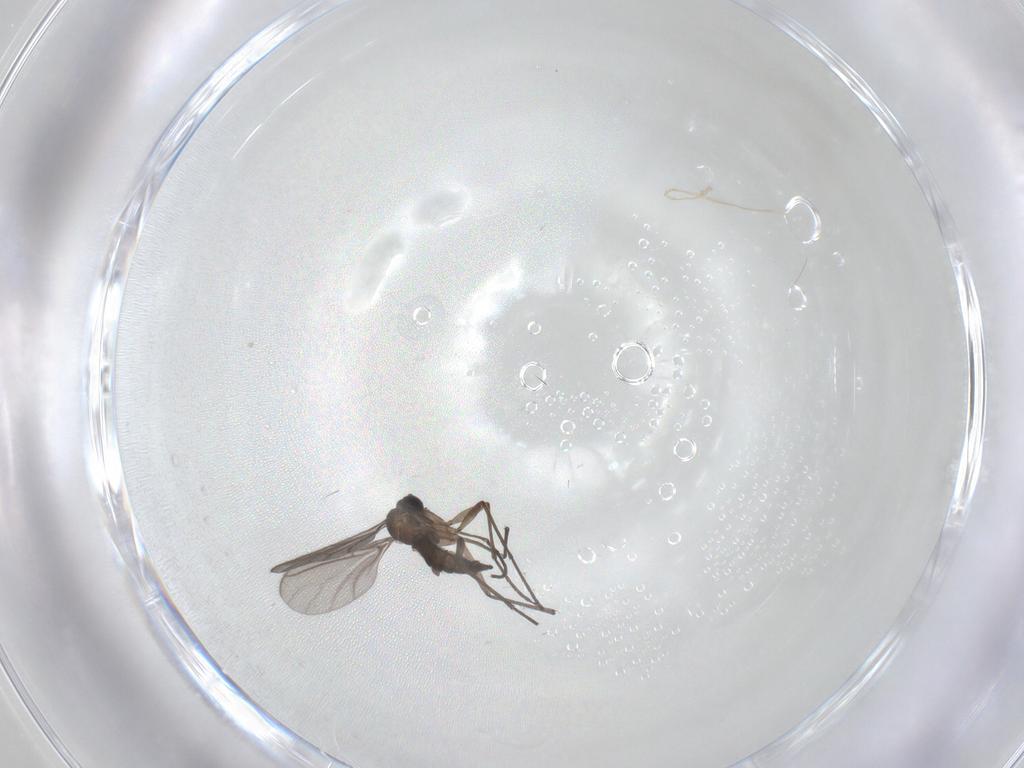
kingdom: Animalia
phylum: Arthropoda
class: Insecta
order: Diptera
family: Sciaridae
